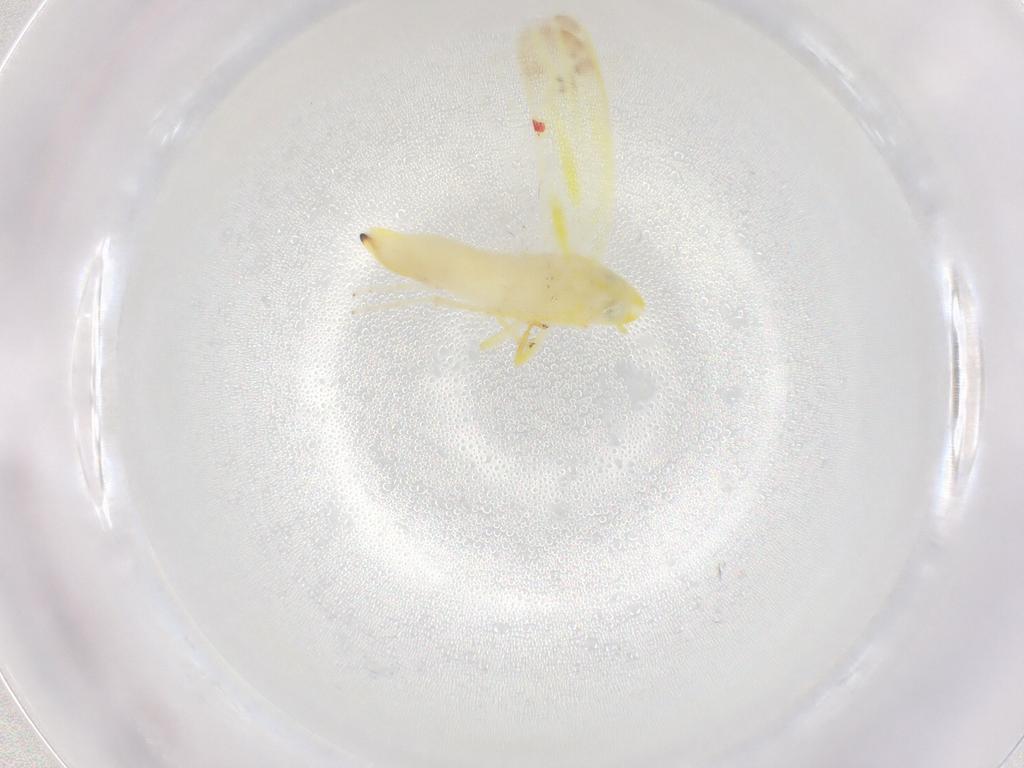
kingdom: Animalia
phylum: Arthropoda
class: Insecta
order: Hemiptera
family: Cicadellidae
